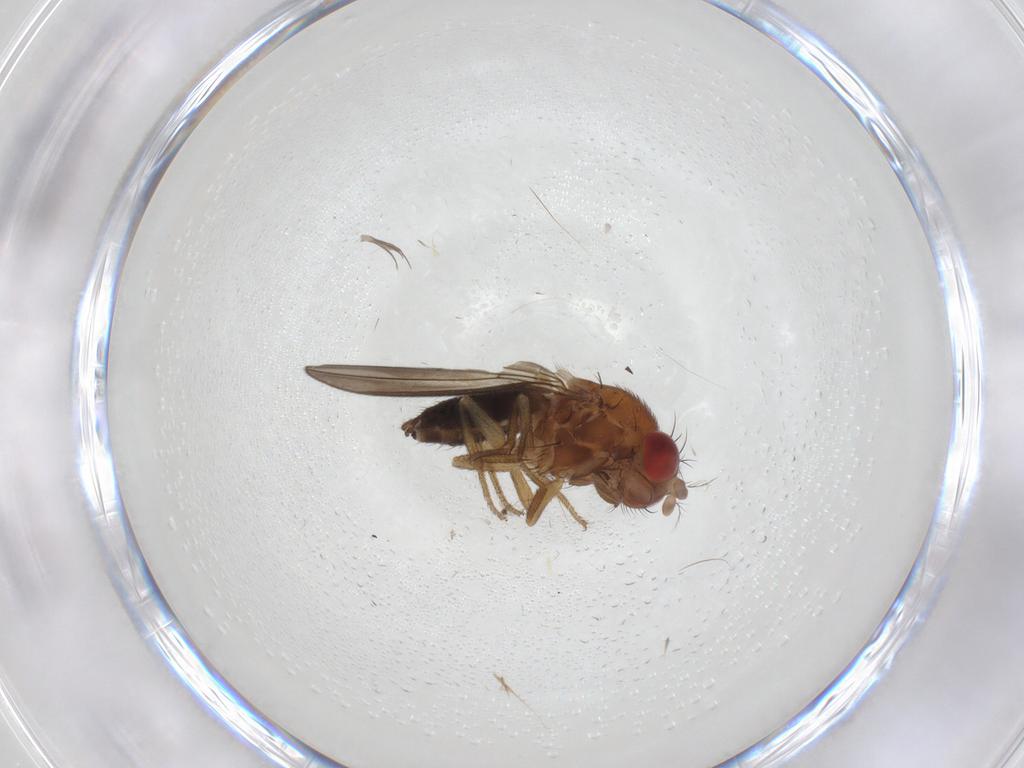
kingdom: Animalia
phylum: Arthropoda
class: Insecta
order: Diptera
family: Drosophilidae
